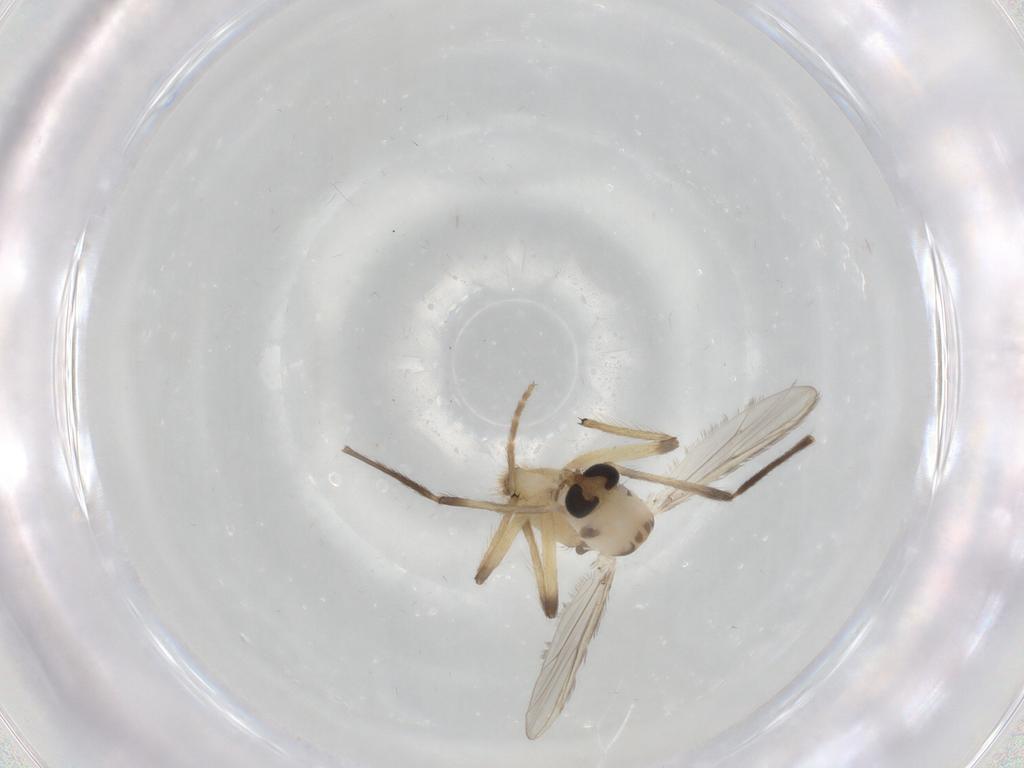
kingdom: Animalia
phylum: Arthropoda
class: Insecta
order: Diptera
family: Chironomidae
